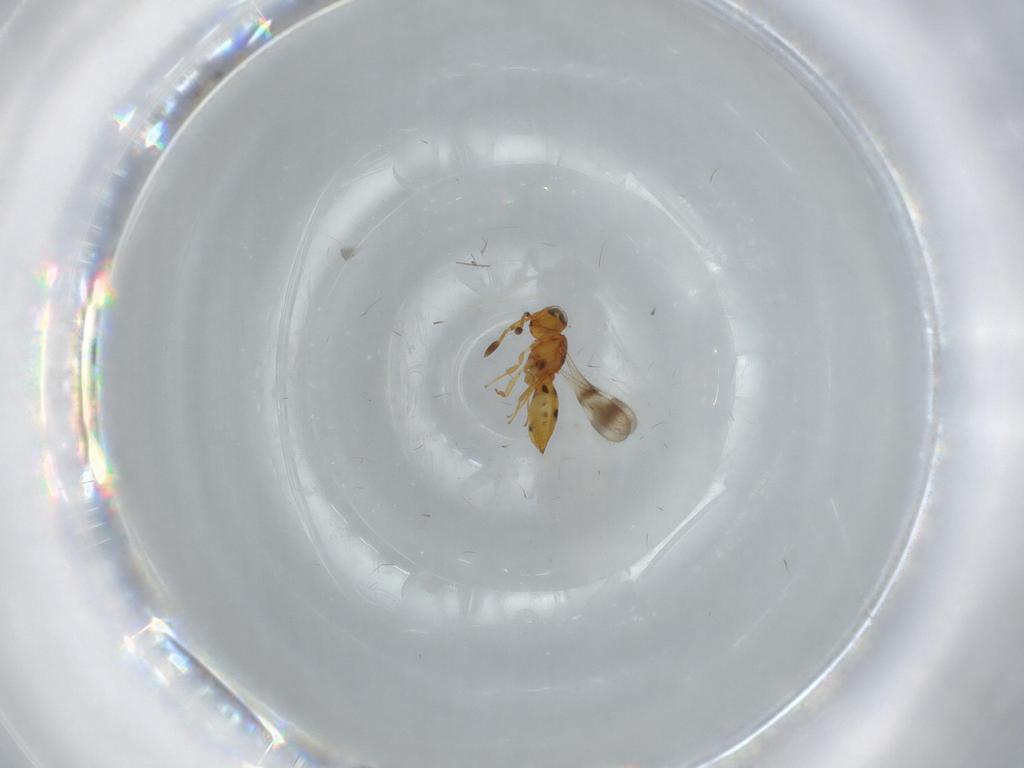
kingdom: Animalia
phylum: Arthropoda
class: Insecta
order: Hymenoptera
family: Scelionidae
